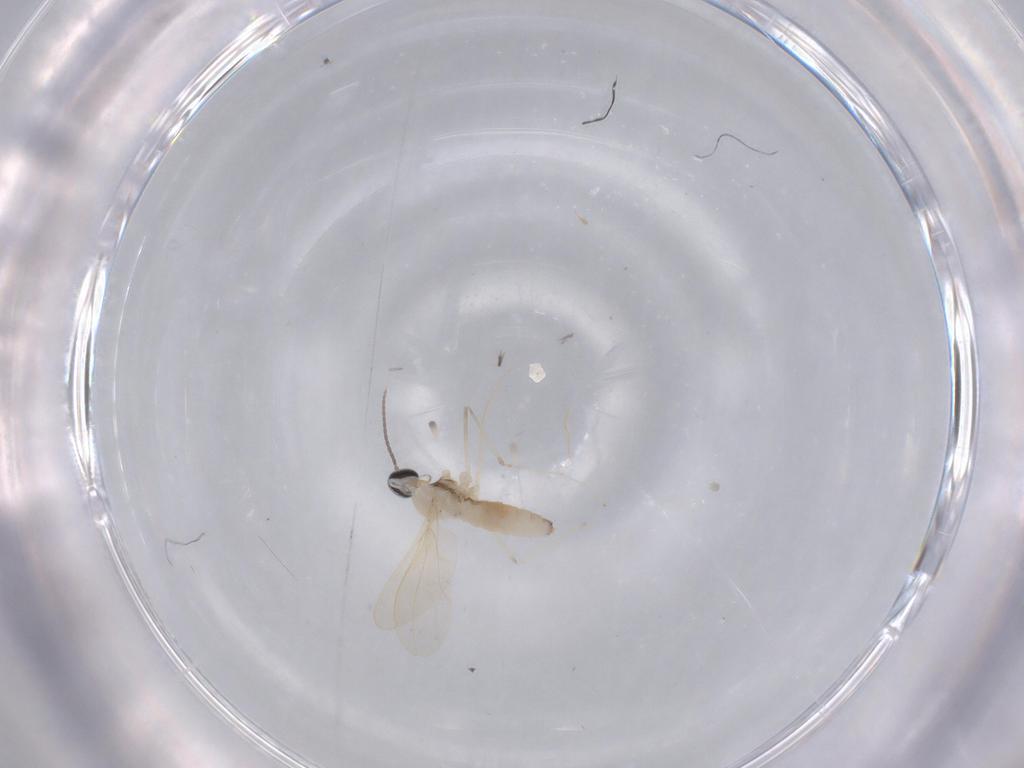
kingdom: Animalia
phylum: Arthropoda
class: Insecta
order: Diptera
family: Cecidomyiidae
